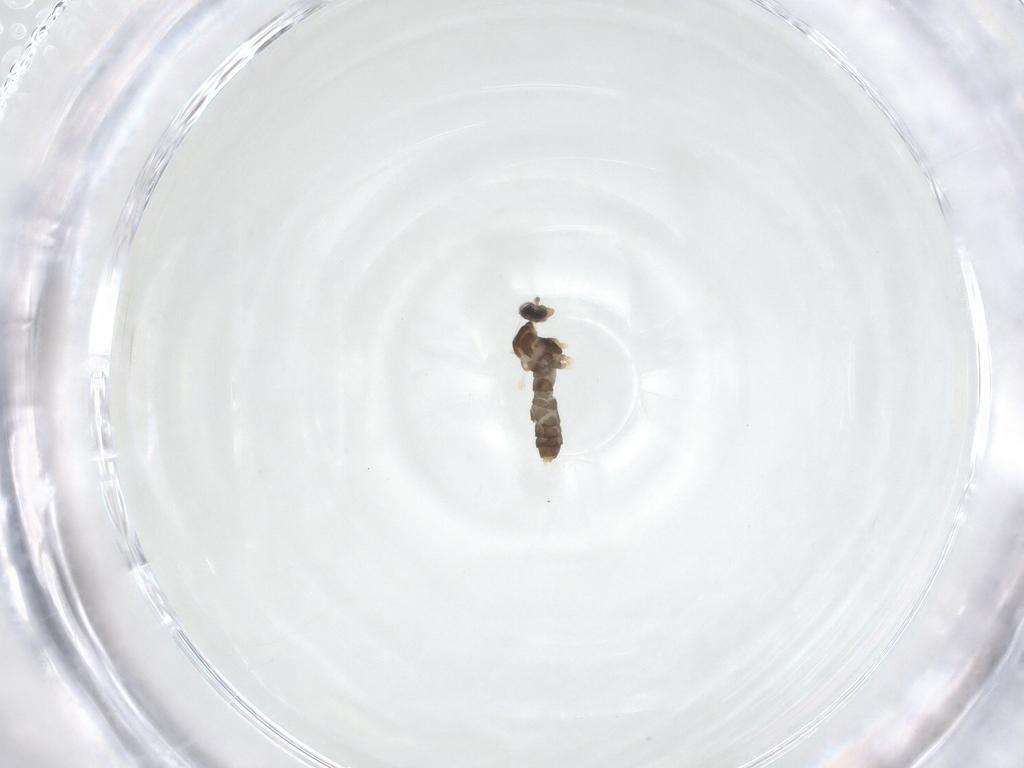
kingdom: Animalia
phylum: Arthropoda
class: Insecta
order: Diptera
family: Cecidomyiidae
